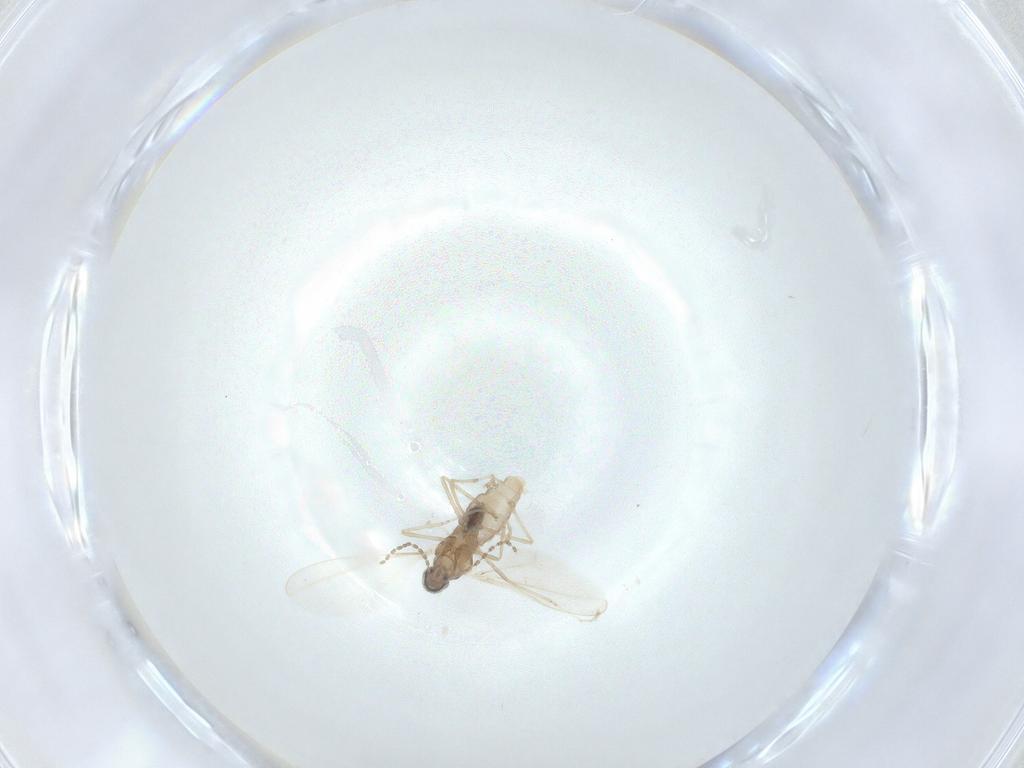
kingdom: Animalia
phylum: Arthropoda
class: Insecta
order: Diptera
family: Cecidomyiidae
